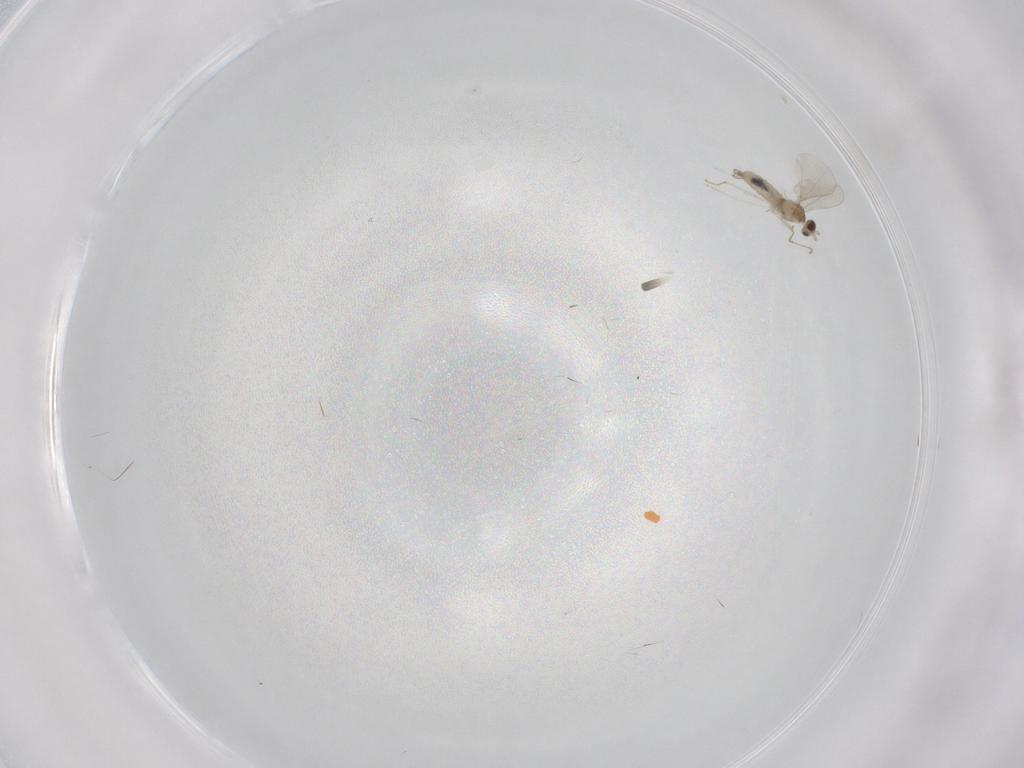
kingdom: Animalia
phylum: Arthropoda
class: Insecta
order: Diptera
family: Cecidomyiidae
